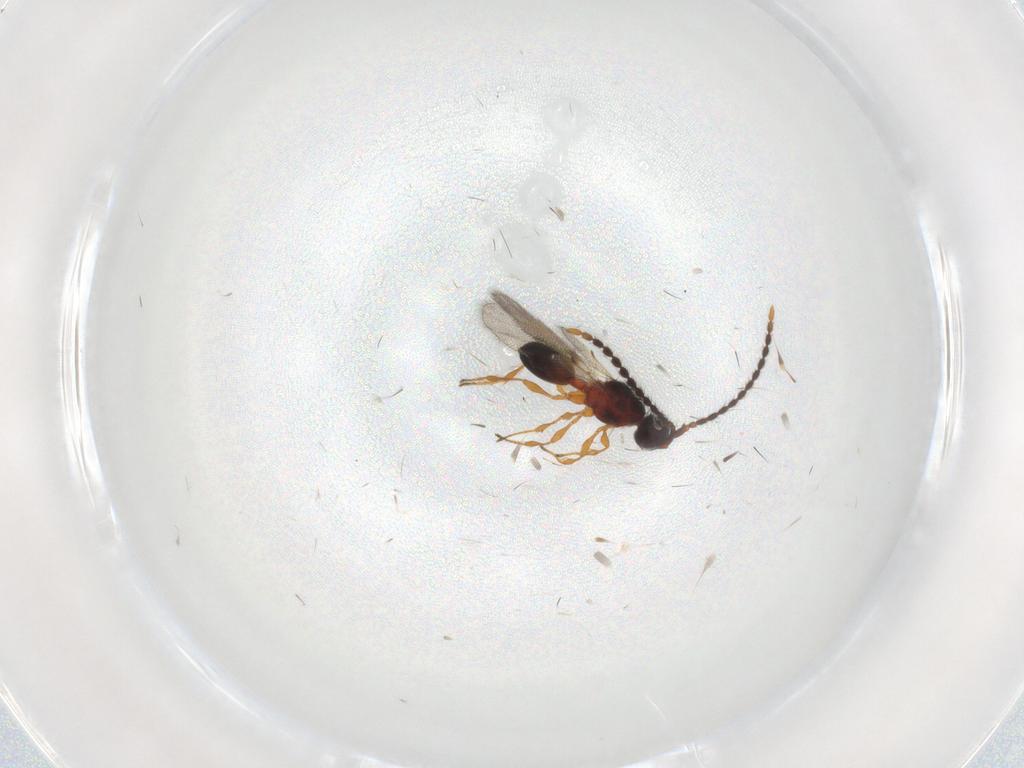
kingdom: Animalia
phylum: Arthropoda
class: Insecta
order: Hymenoptera
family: Diapriidae
